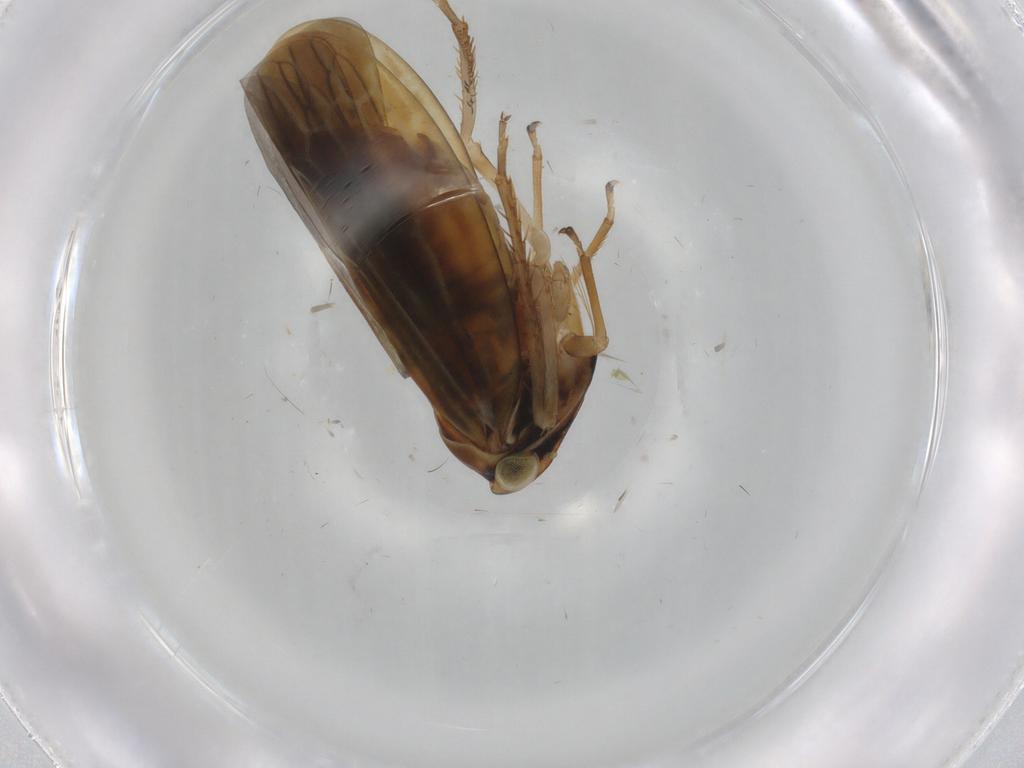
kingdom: Animalia
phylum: Arthropoda
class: Insecta
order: Hemiptera
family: Cicadellidae
